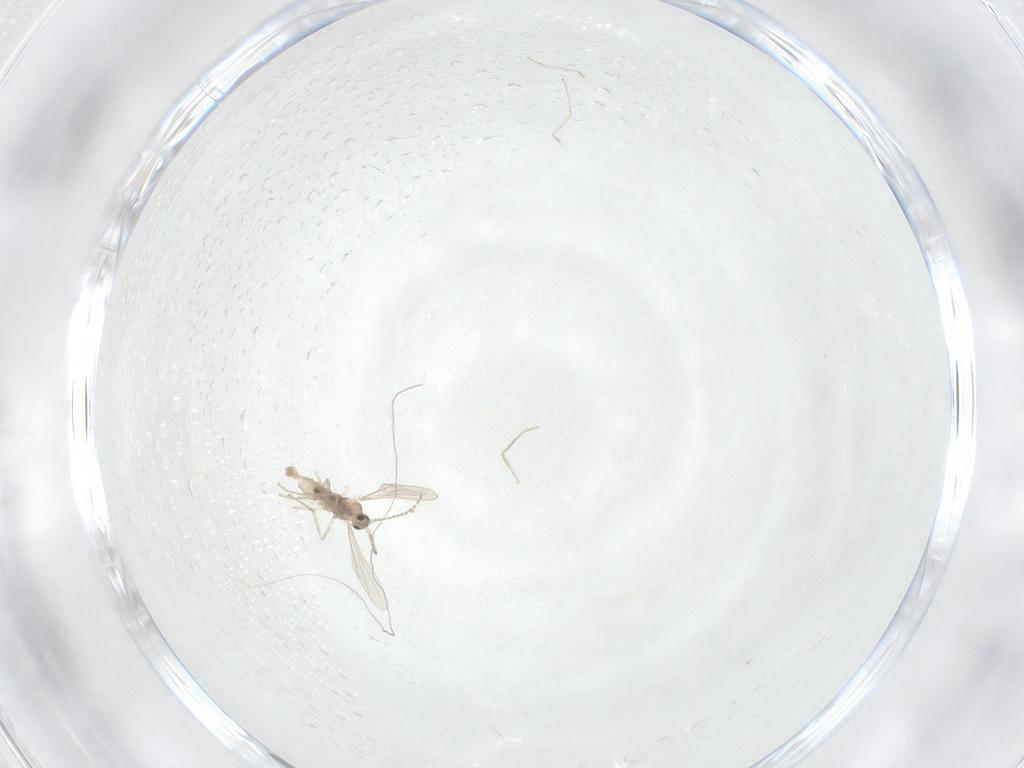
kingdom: Animalia
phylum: Arthropoda
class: Insecta
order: Diptera
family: Cecidomyiidae
